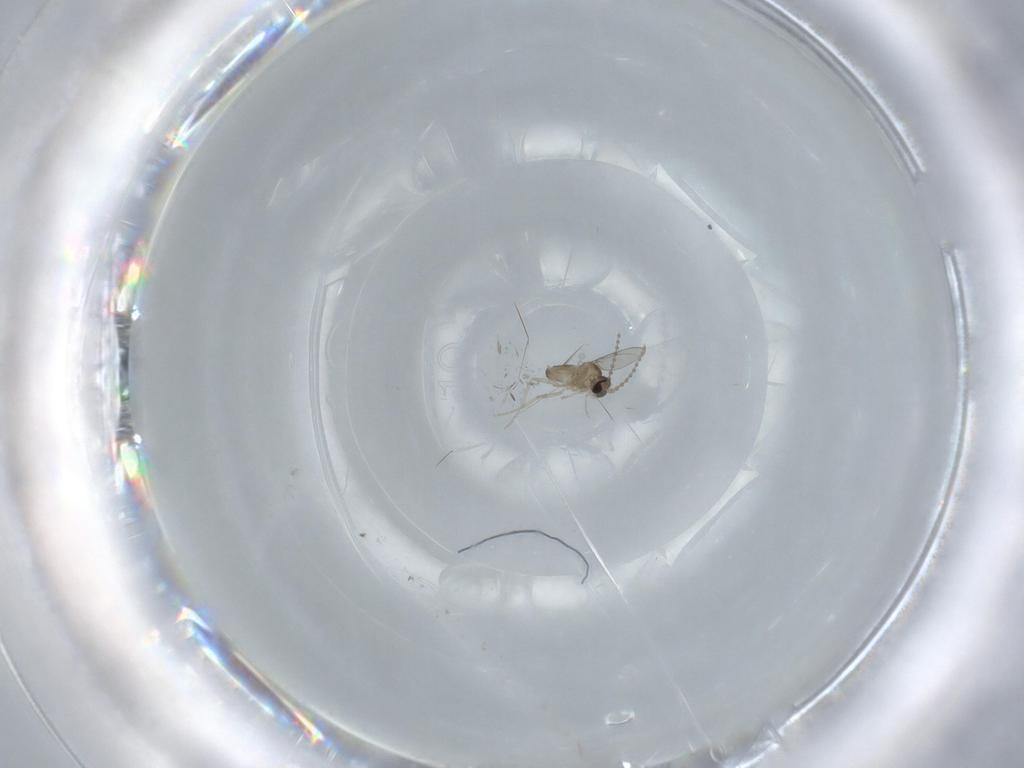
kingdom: Animalia
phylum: Arthropoda
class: Insecta
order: Diptera
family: Cecidomyiidae
